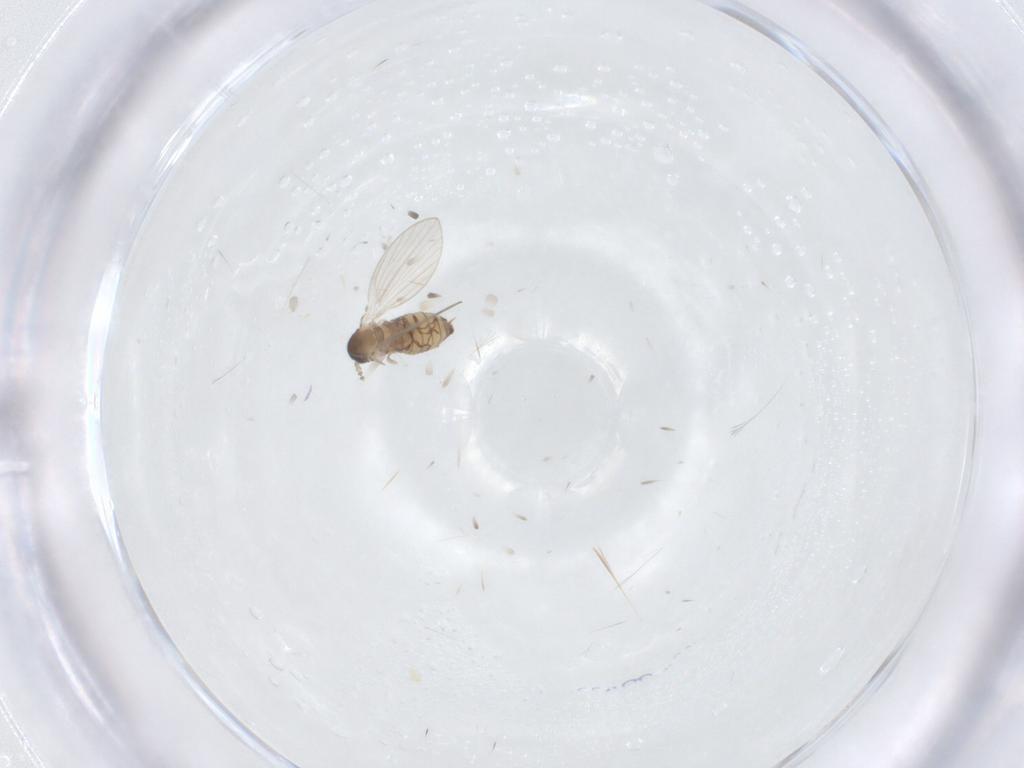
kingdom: Animalia
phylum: Arthropoda
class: Insecta
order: Diptera
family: Psychodidae
